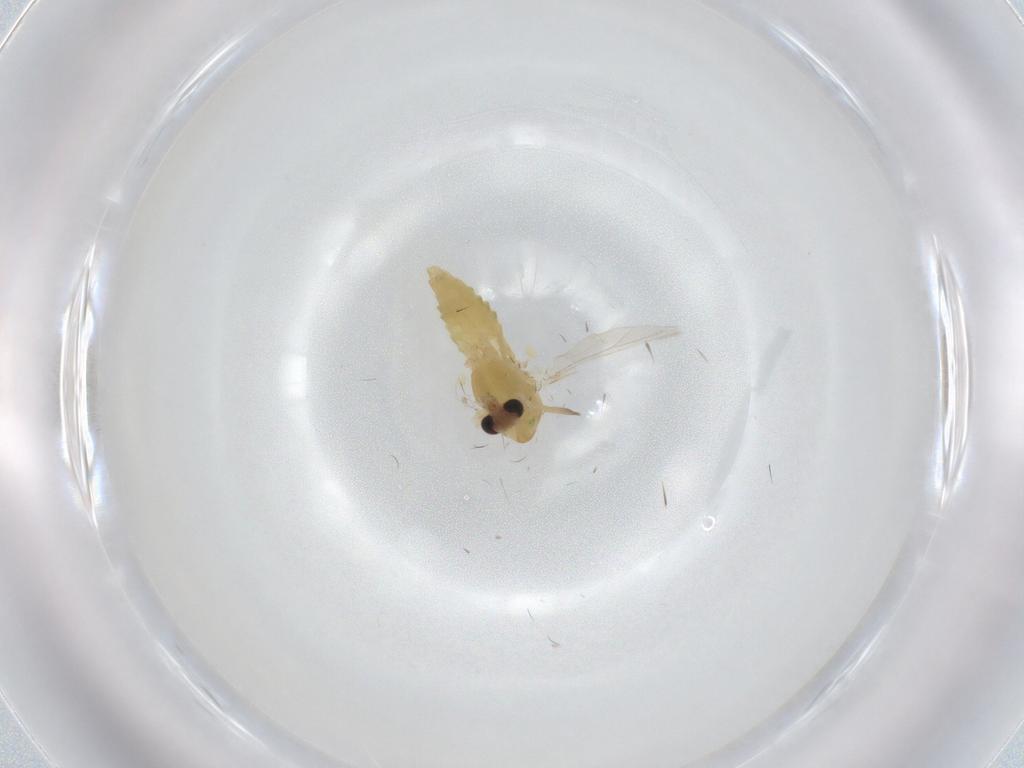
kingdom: Animalia
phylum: Arthropoda
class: Insecta
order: Diptera
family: Chironomidae
